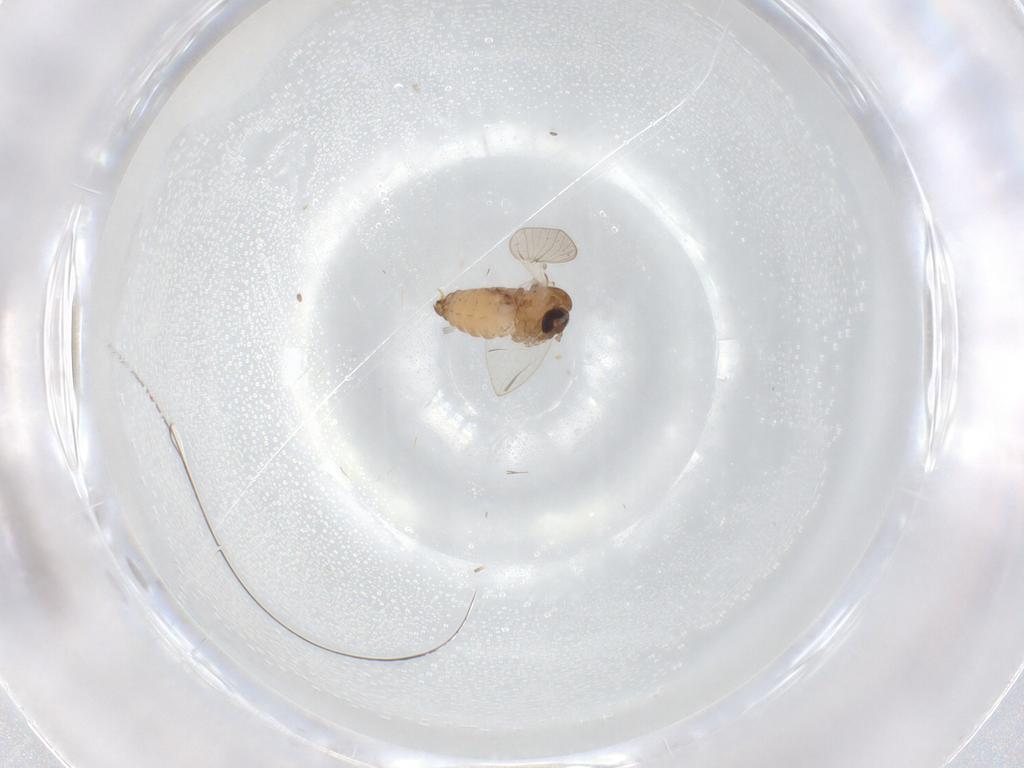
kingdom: Animalia
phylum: Arthropoda
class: Insecta
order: Diptera
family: Psychodidae
